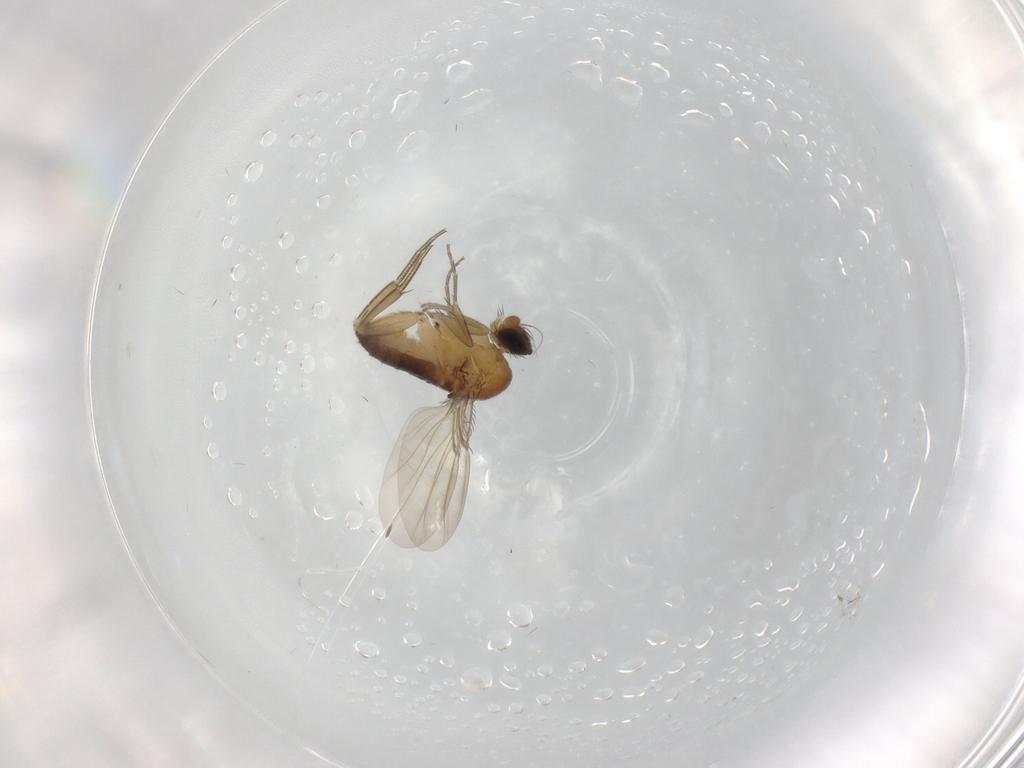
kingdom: Animalia
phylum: Arthropoda
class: Insecta
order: Diptera
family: Phoridae
